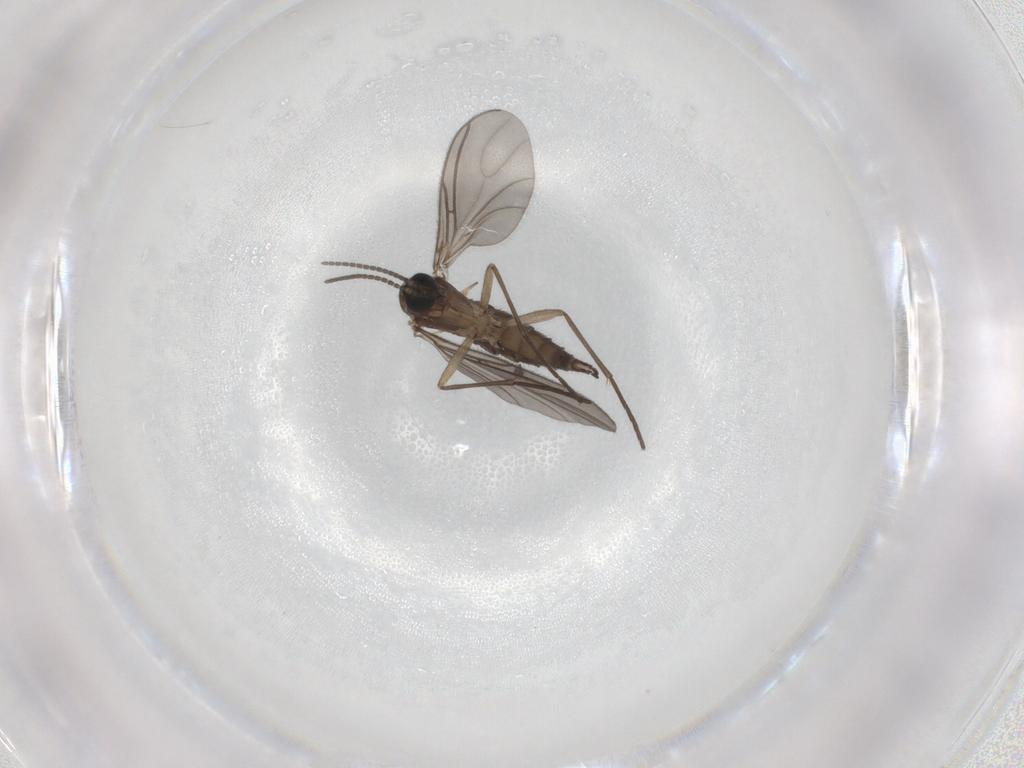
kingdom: Animalia
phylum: Arthropoda
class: Insecta
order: Diptera
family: Sciaridae
